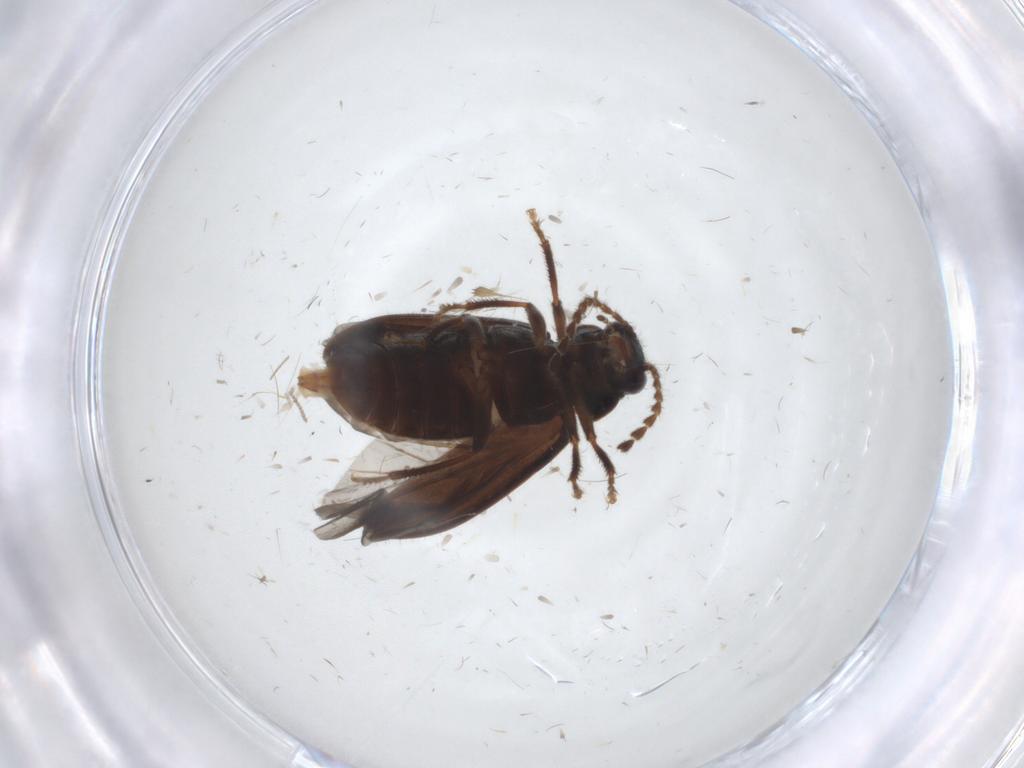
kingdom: Animalia
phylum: Arthropoda
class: Insecta
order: Coleoptera
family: Ptilodactylidae
